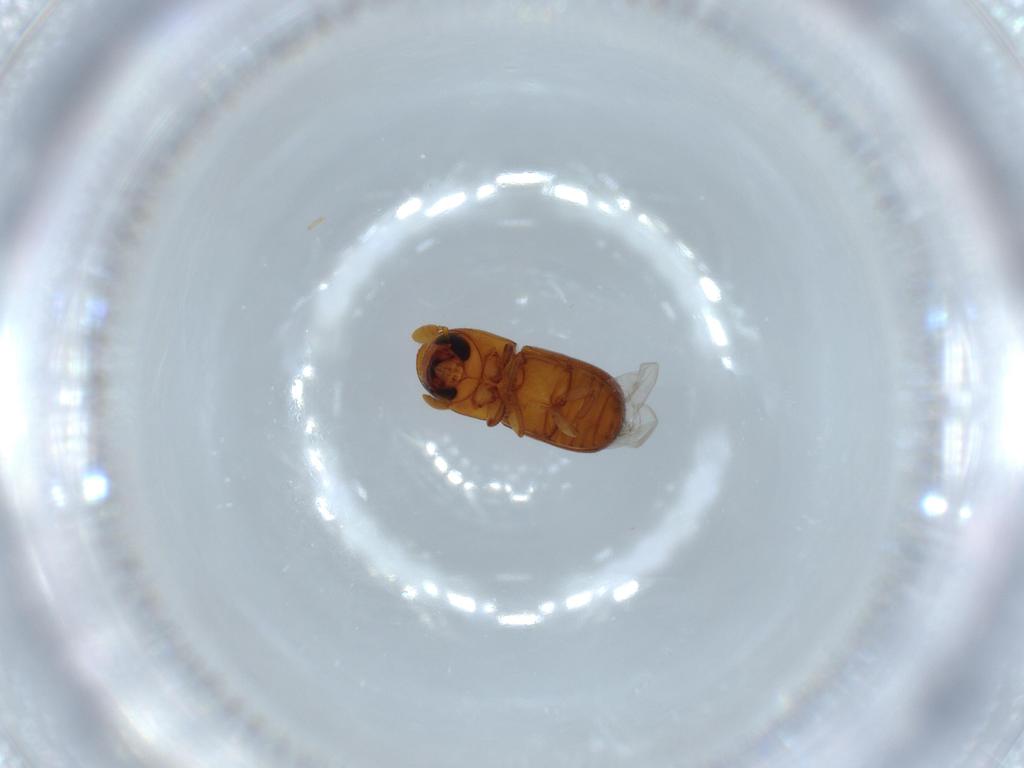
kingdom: Animalia
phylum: Arthropoda
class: Insecta
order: Coleoptera
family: Curculionidae
